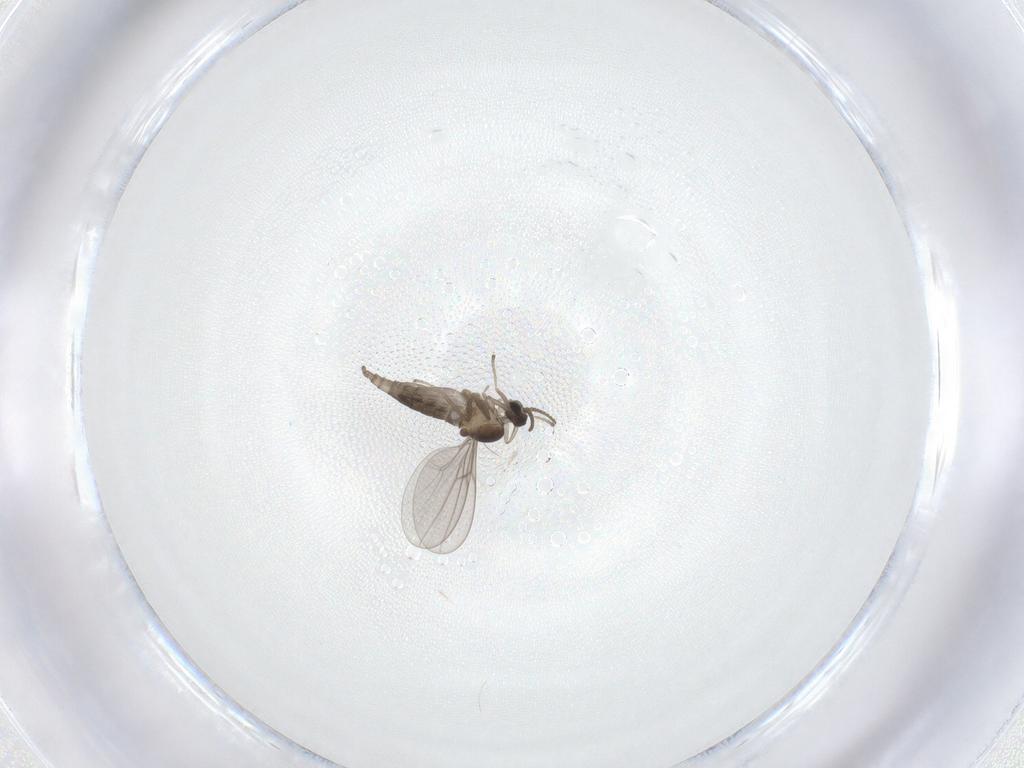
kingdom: Animalia
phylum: Arthropoda
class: Insecta
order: Diptera
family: Cecidomyiidae
